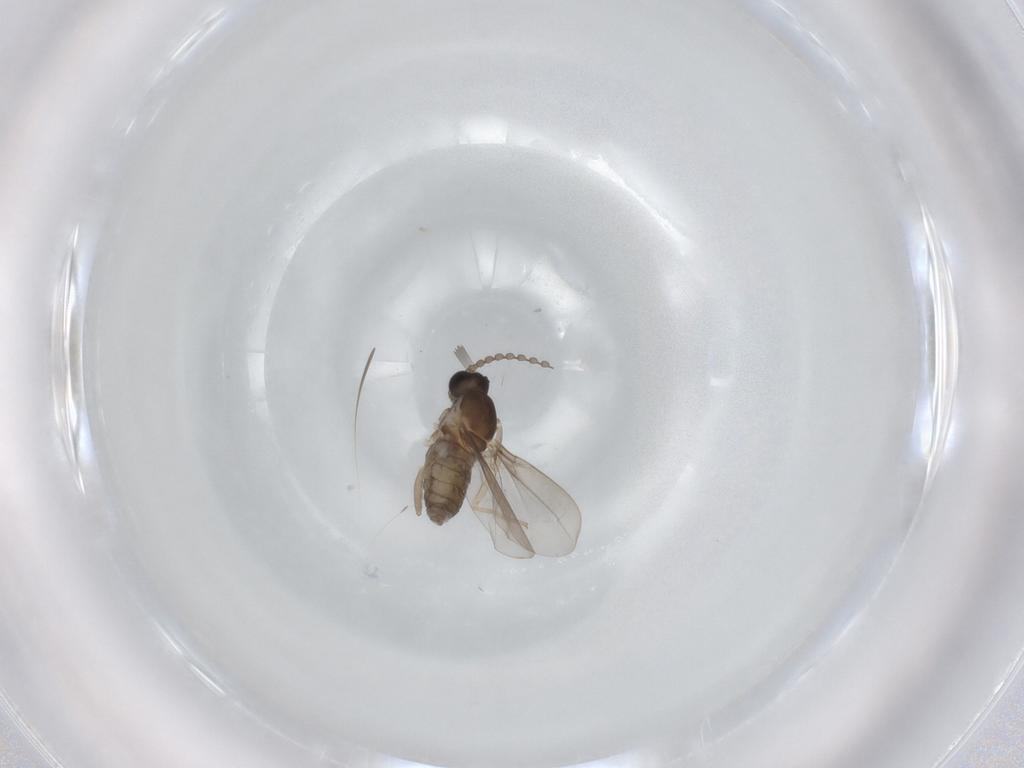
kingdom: Animalia
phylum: Arthropoda
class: Insecta
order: Diptera
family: Cecidomyiidae
